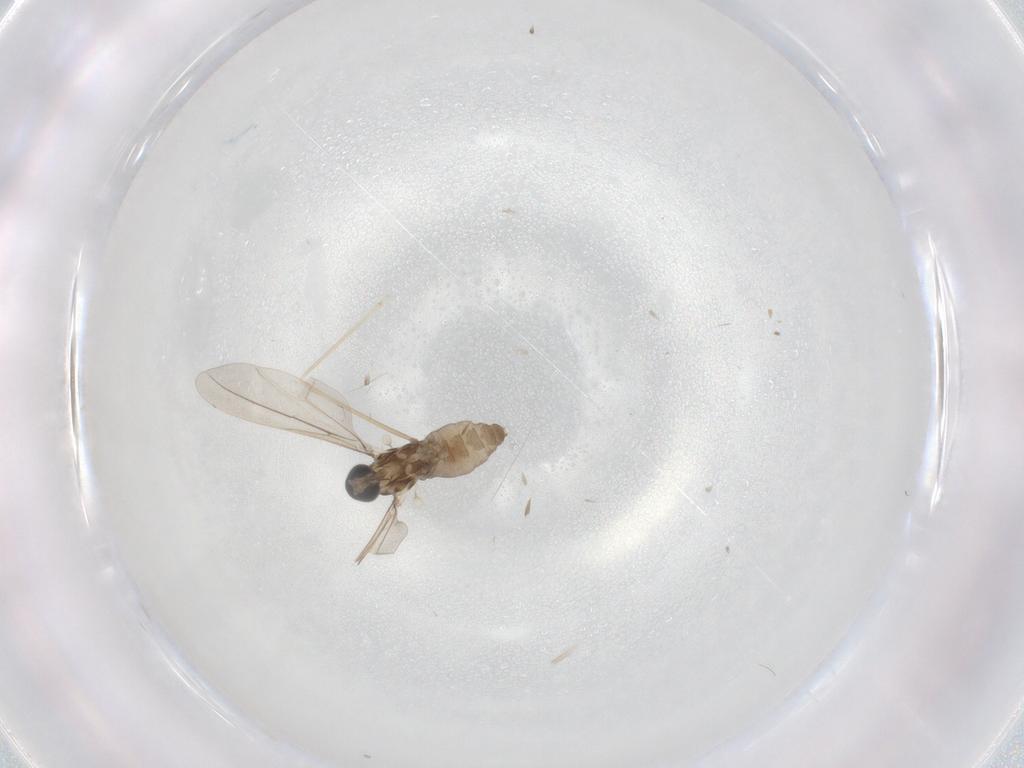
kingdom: Animalia
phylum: Arthropoda
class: Insecta
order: Diptera
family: Cecidomyiidae
